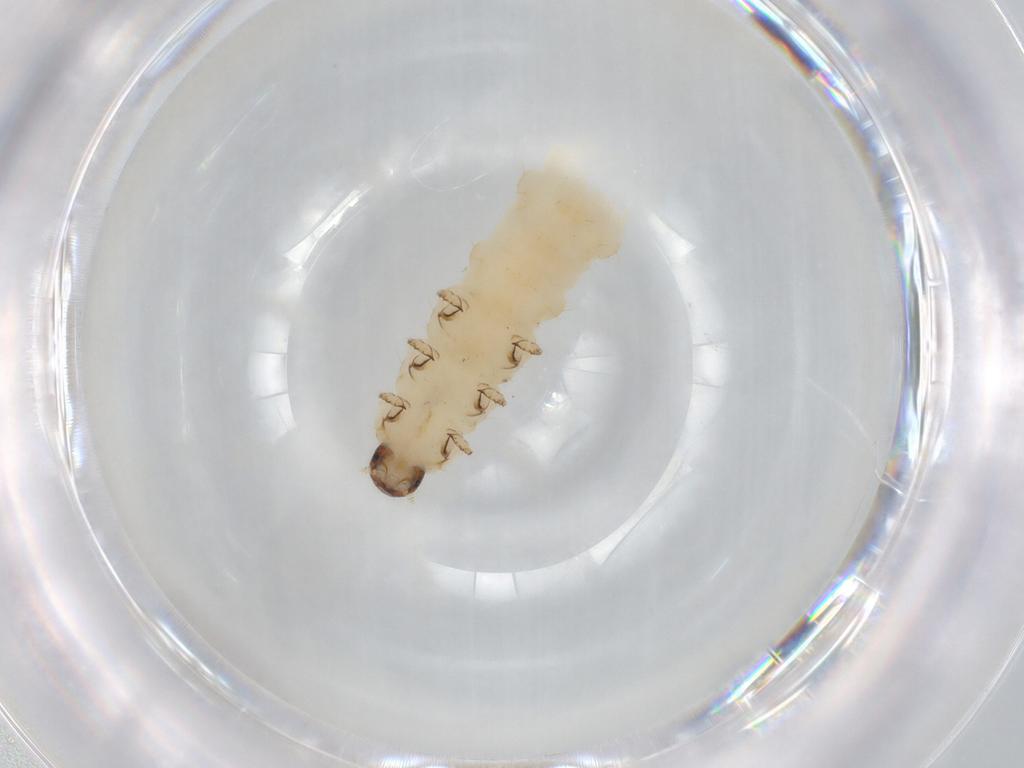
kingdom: Animalia
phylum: Arthropoda
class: Insecta
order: Coleoptera
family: Chrysomelidae
